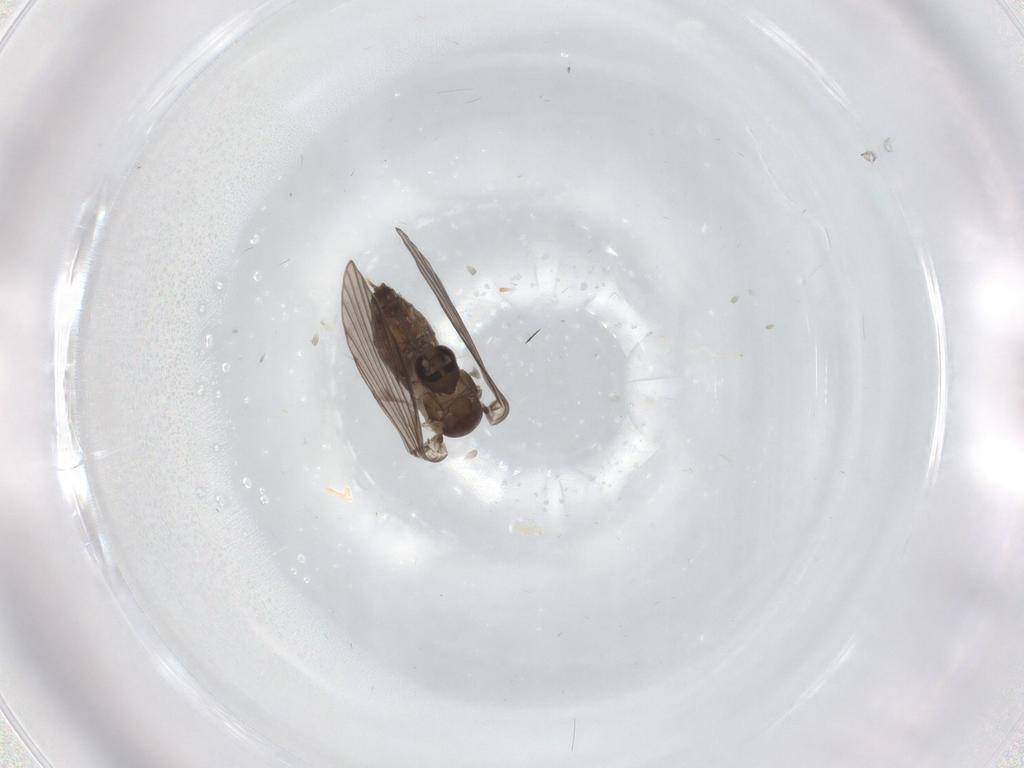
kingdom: Animalia
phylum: Arthropoda
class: Insecta
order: Diptera
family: Psychodidae
